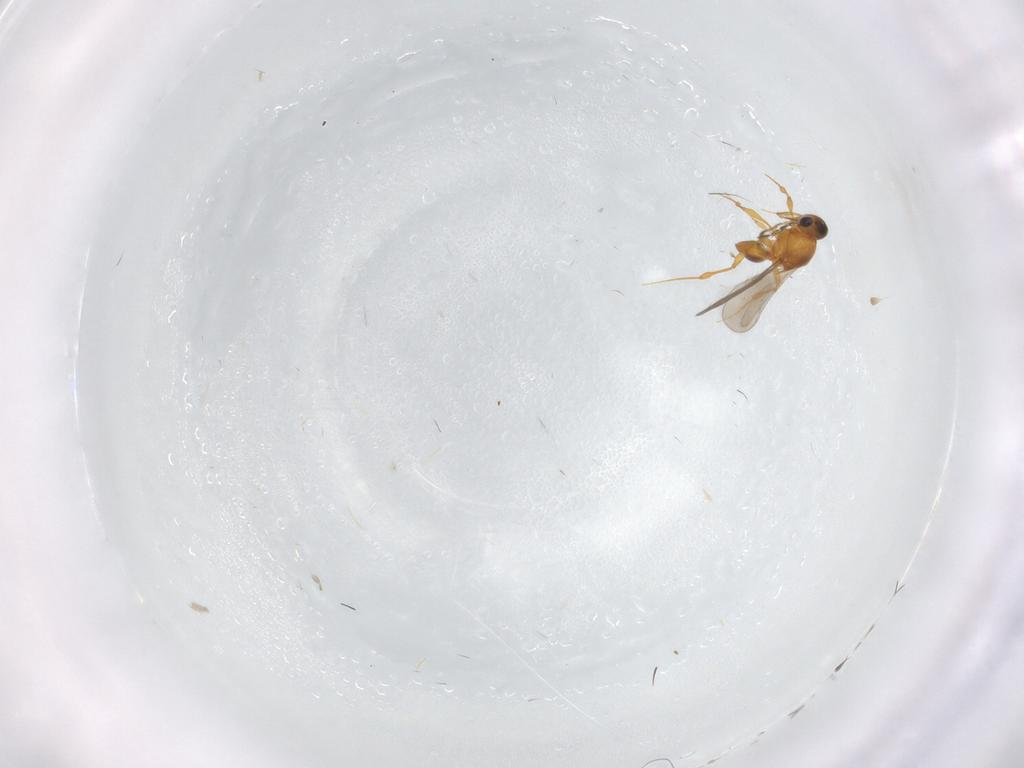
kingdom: Animalia
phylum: Arthropoda
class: Insecta
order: Hymenoptera
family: Platygastridae
